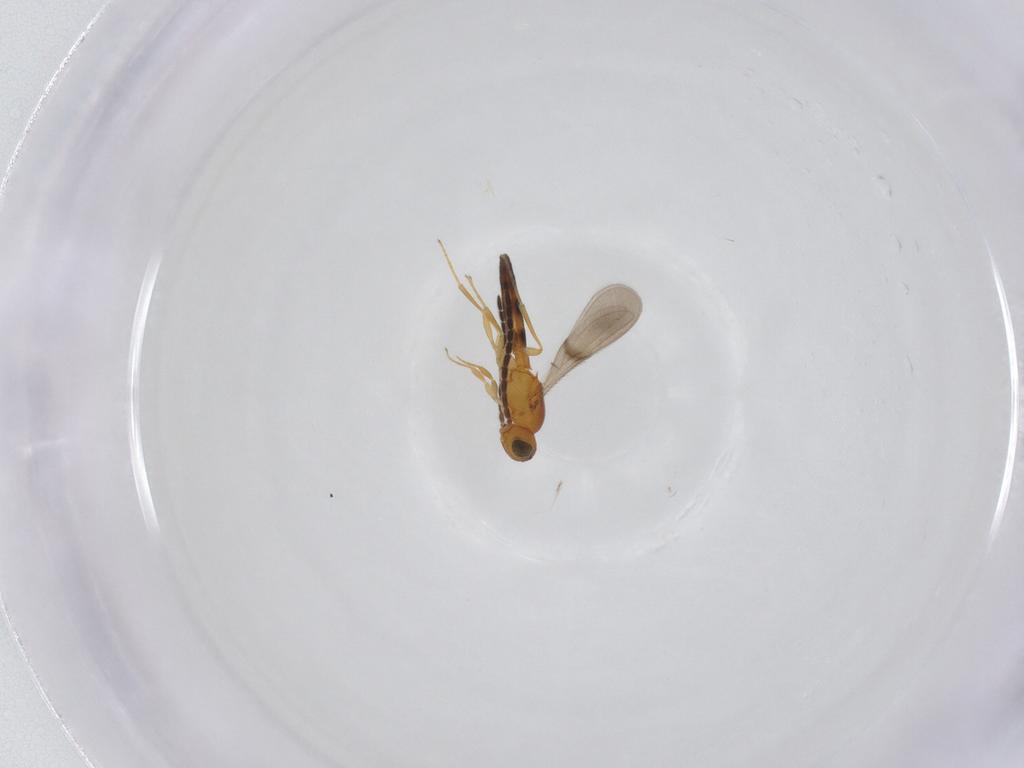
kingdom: Animalia
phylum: Arthropoda
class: Insecta
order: Hymenoptera
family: Scelionidae
